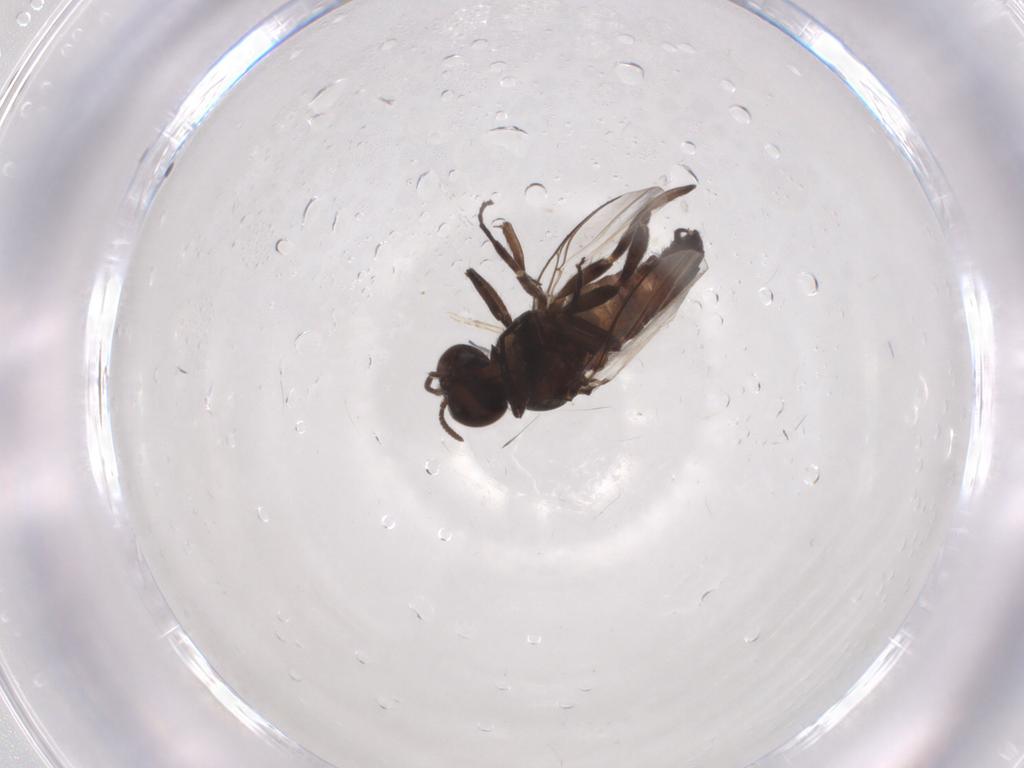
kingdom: Animalia
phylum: Arthropoda
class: Insecta
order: Diptera
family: Simuliidae
